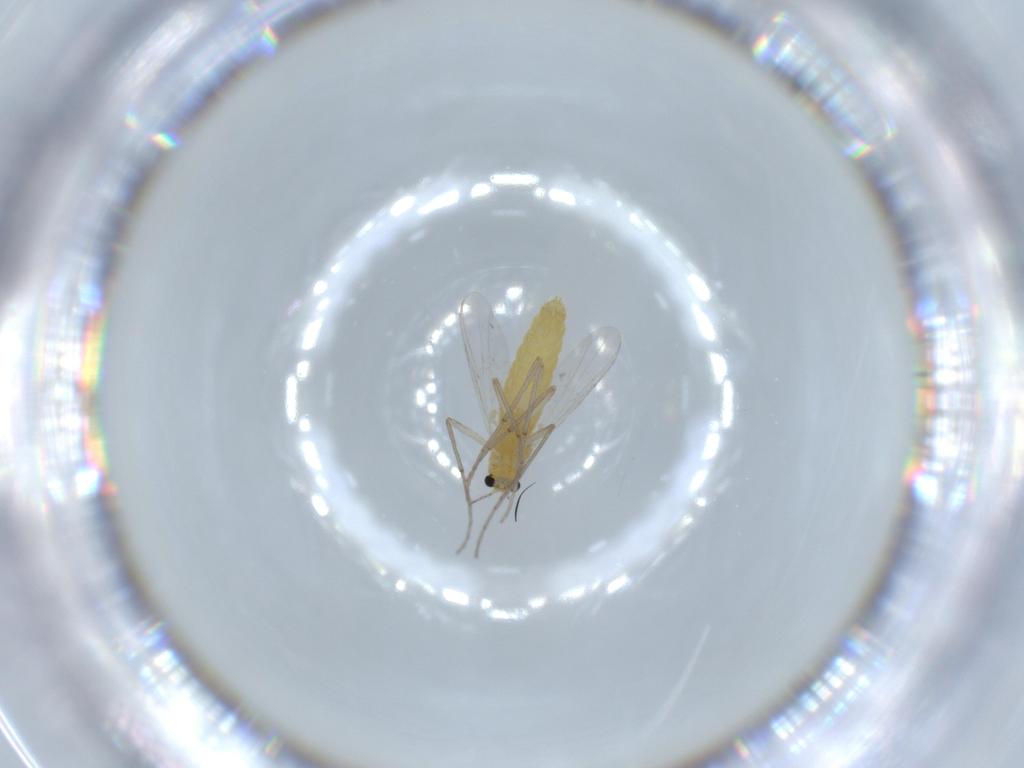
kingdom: Animalia
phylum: Arthropoda
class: Insecta
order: Diptera
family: Chironomidae
